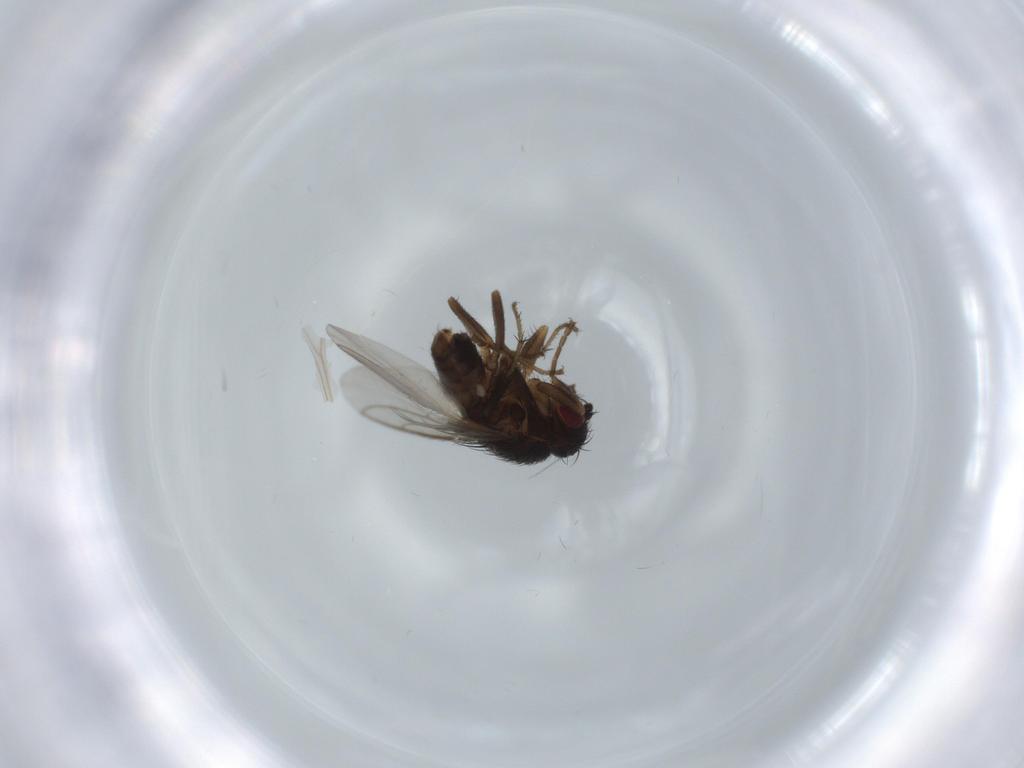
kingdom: Animalia
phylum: Arthropoda
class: Insecta
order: Diptera
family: Sphaeroceridae
